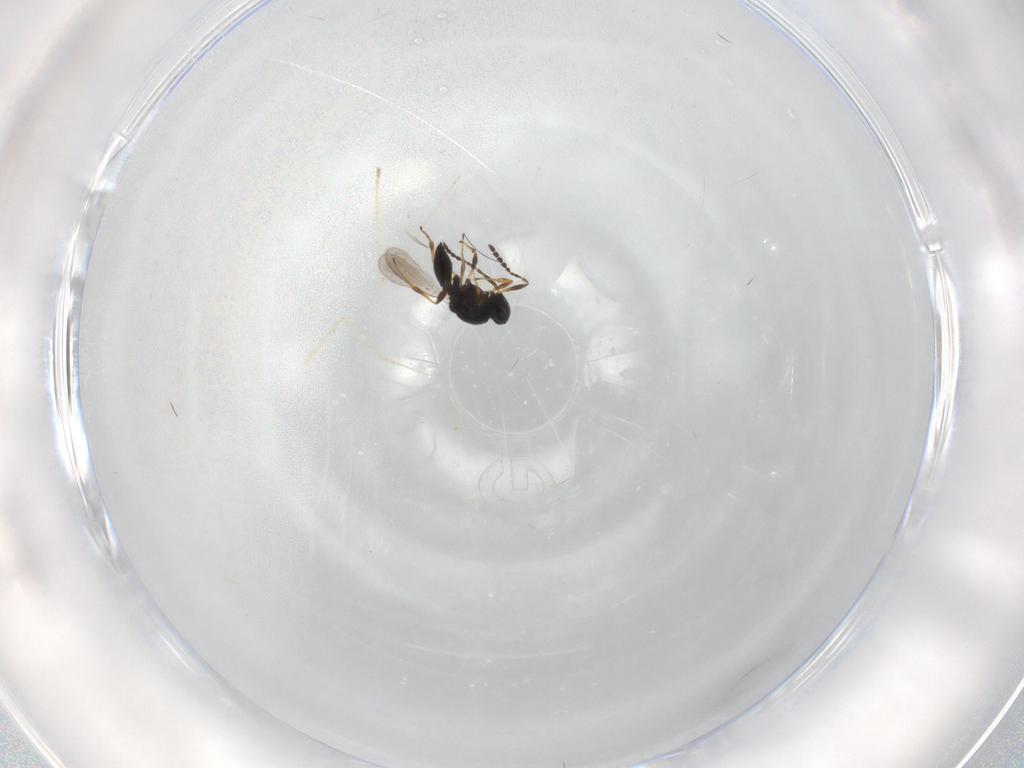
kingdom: Animalia
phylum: Arthropoda
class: Insecta
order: Hymenoptera
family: Platygastridae
